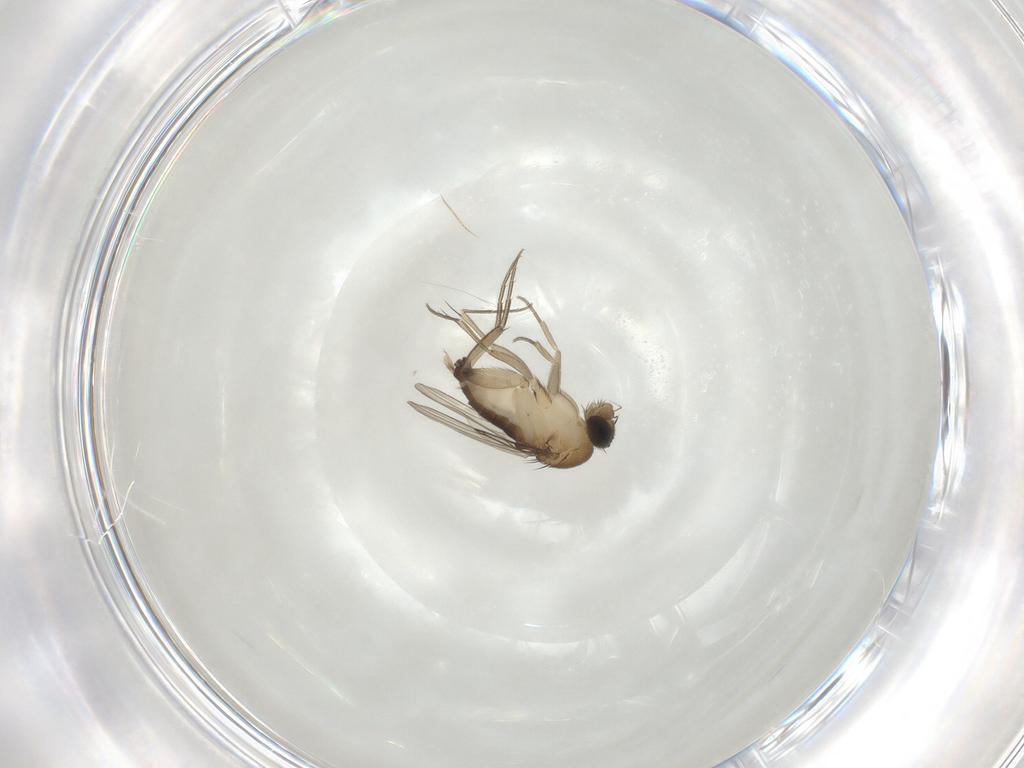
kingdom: Animalia
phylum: Arthropoda
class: Insecta
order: Diptera
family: Phoridae
